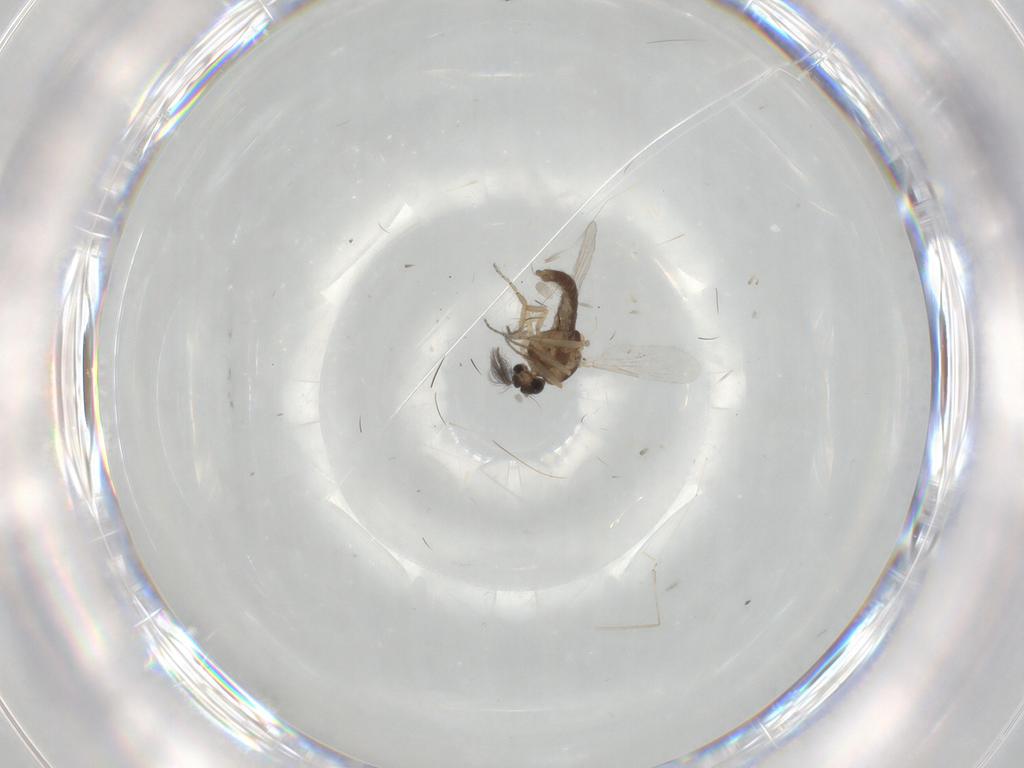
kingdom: Animalia
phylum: Arthropoda
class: Insecta
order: Diptera
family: Ceratopogonidae
